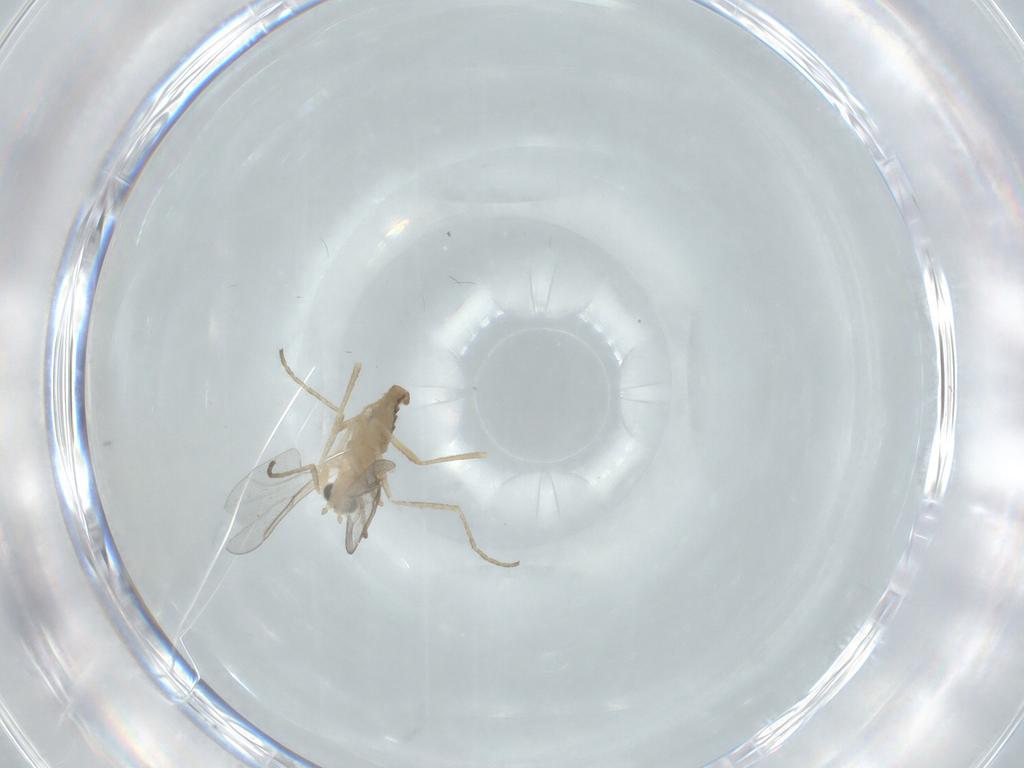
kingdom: Animalia
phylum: Arthropoda
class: Insecta
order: Diptera
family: Cecidomyiidae
